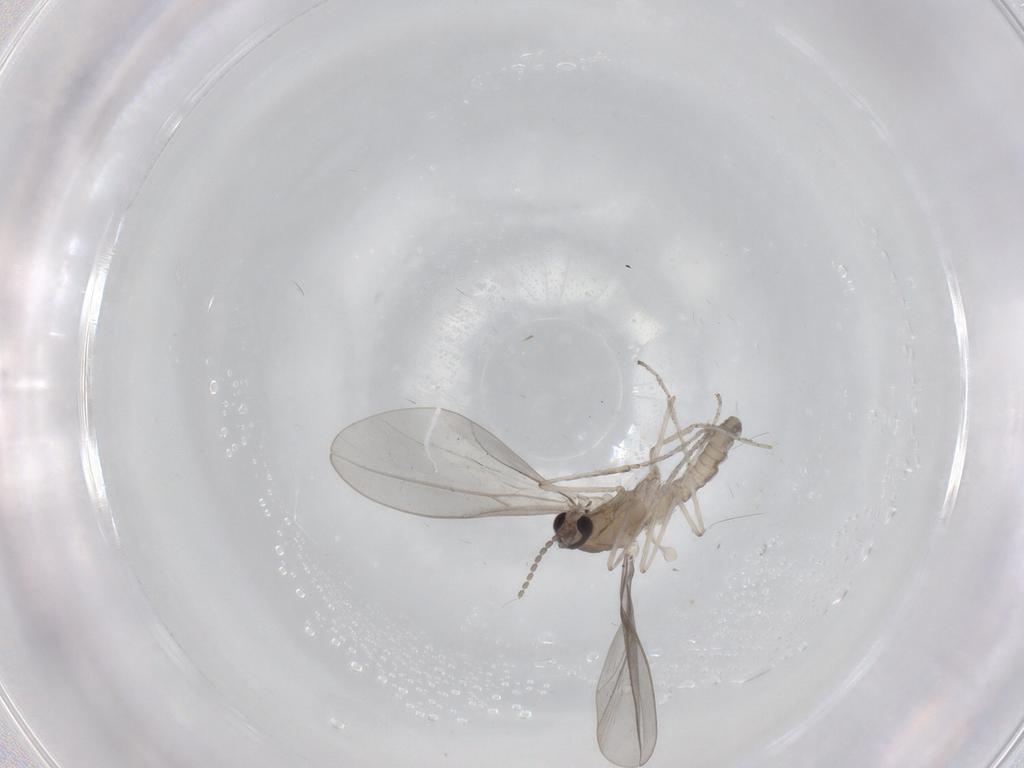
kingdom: Animalia
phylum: Arthropoda
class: Insecta
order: Diptera
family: Cecidomyiidae
